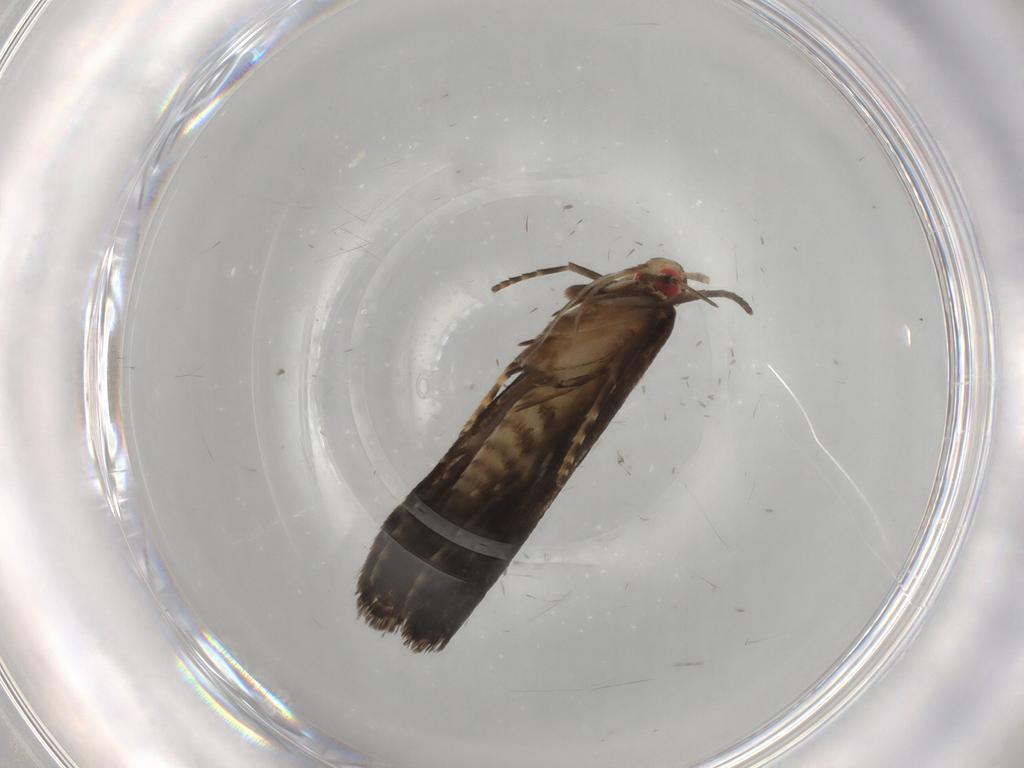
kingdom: Animalia
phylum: Arthropoda
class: Insecta
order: Lepidoptera
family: Gelechiidae
